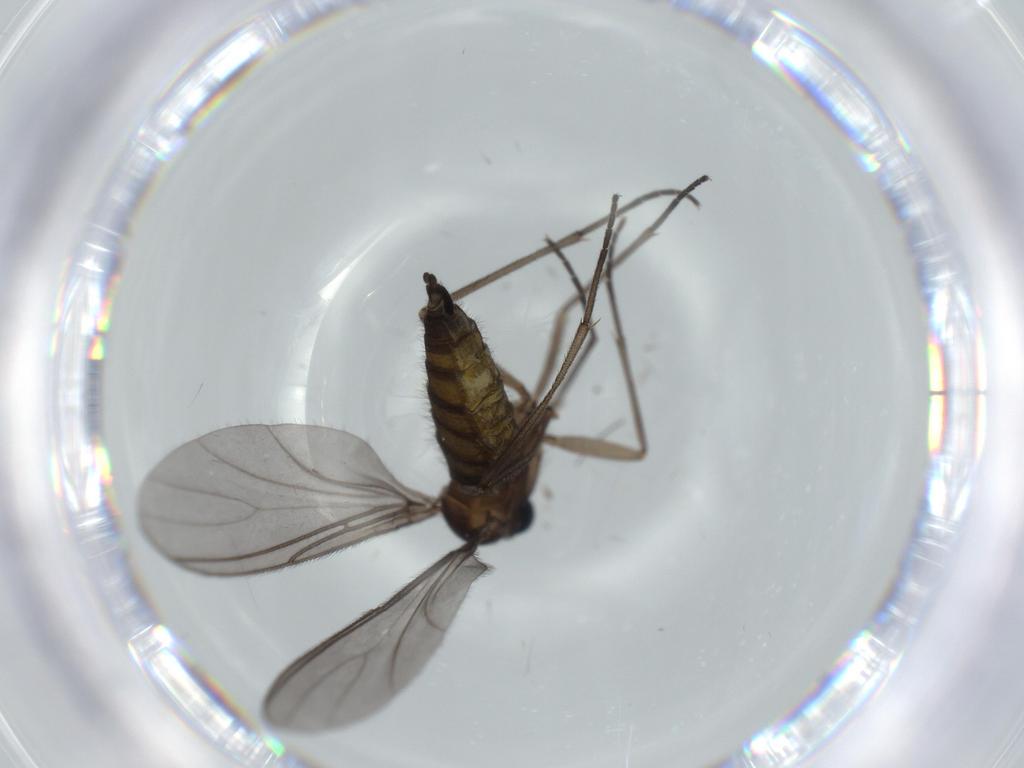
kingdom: Animalia
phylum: Arthropoda
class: Insecta
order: Diptera
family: Sciaridae
